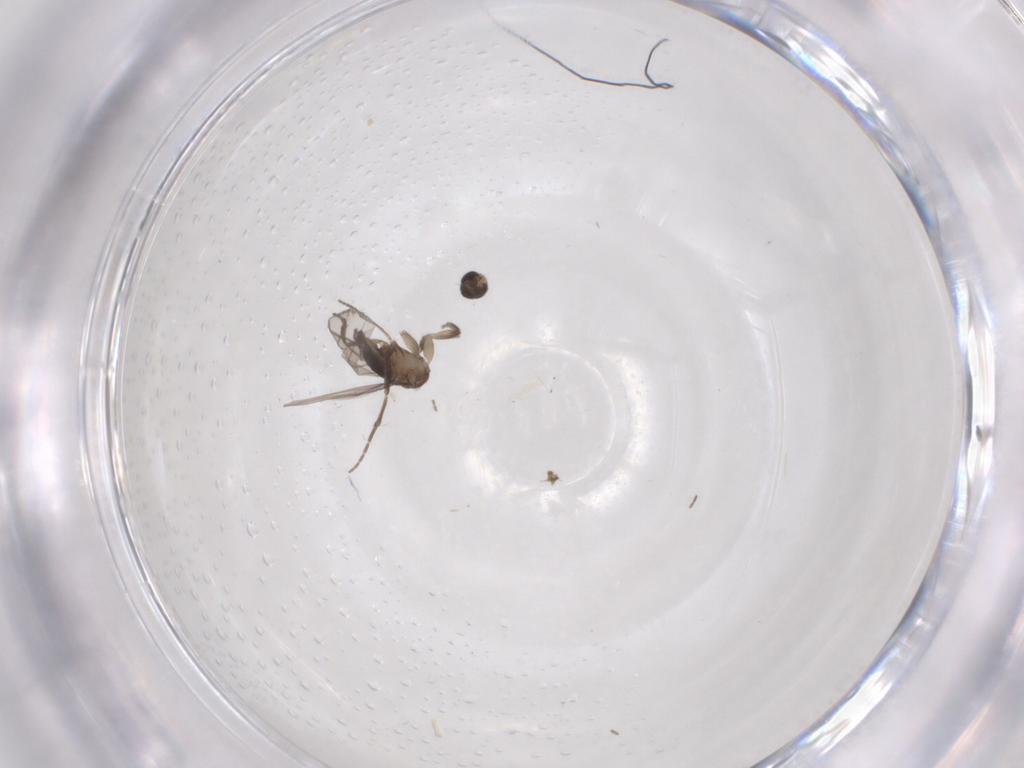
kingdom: Animalia
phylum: Arthropoda
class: Insecta
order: Diptera
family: Phoridae
